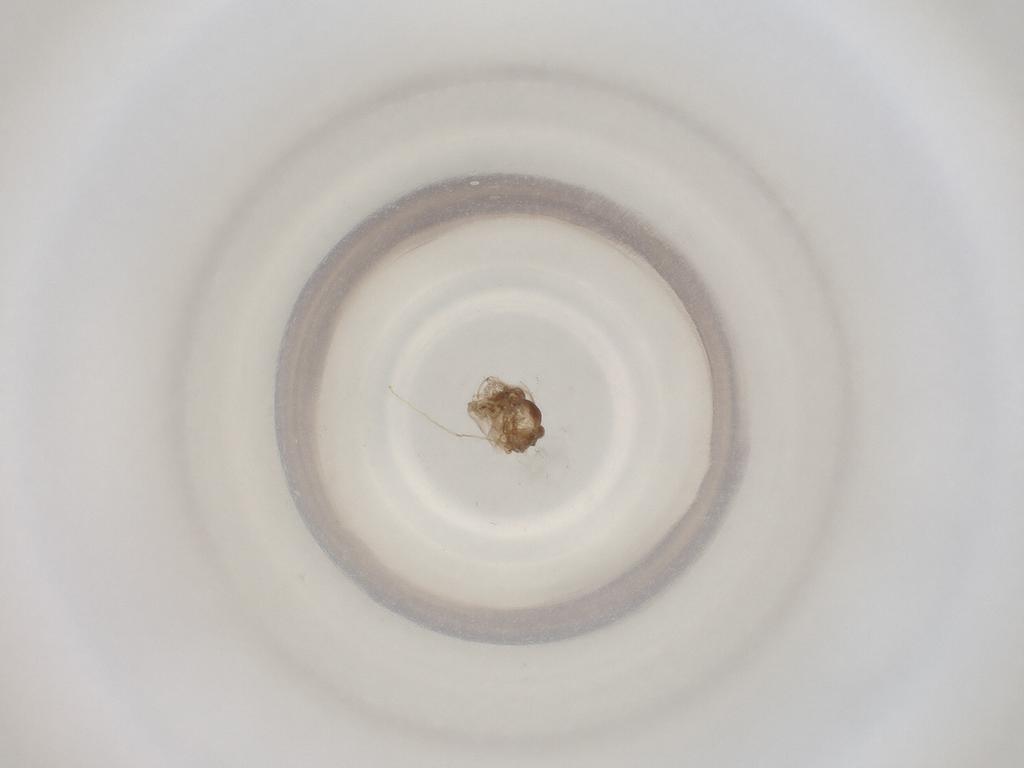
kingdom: Animalia
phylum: Arthropoda
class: Insecta
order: Diptera
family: Cecidomyiidae
